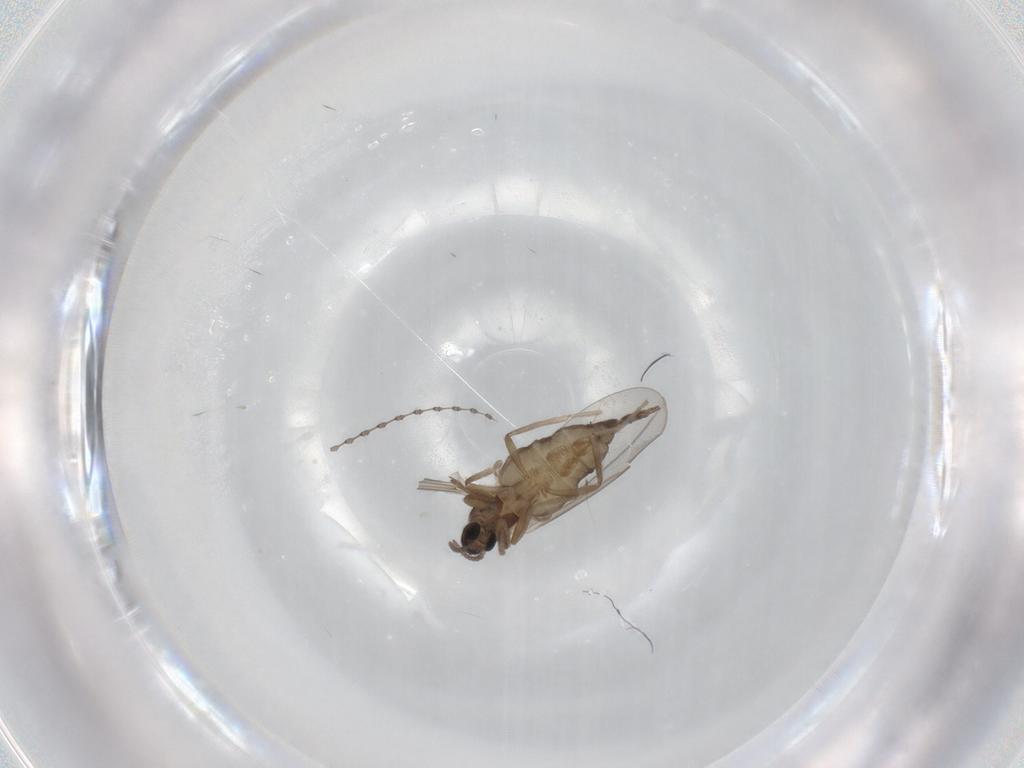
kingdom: Animalia
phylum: Arthropoda
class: Insecta
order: Diptera
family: Cecidomyiidae
